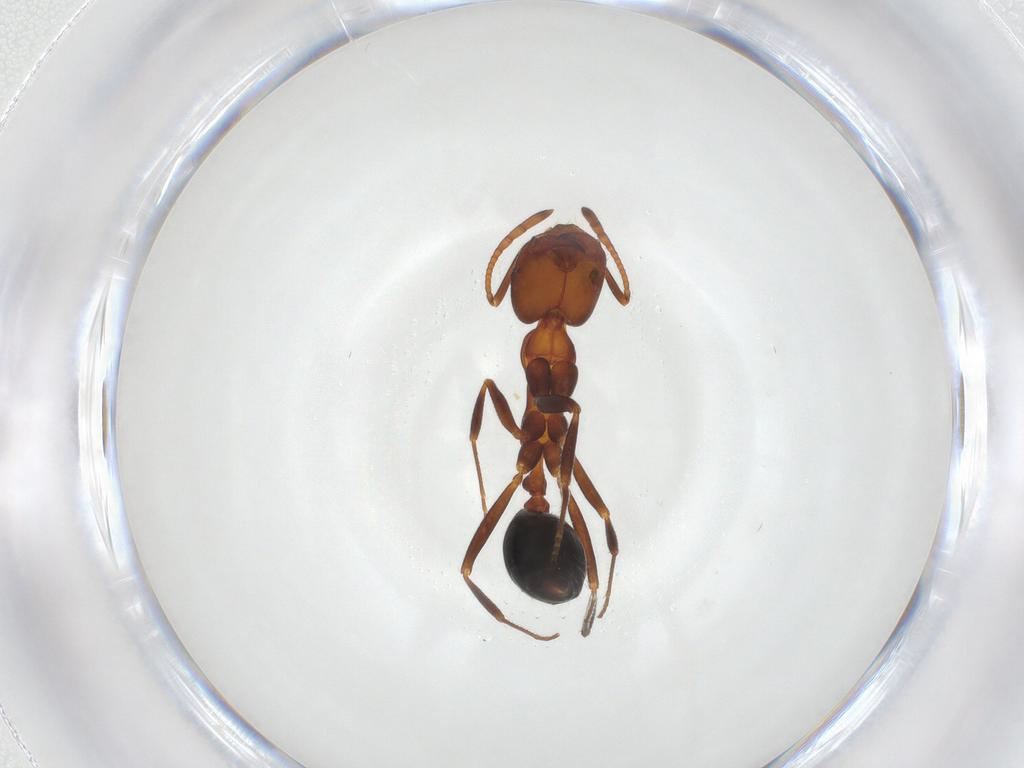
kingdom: Animalia
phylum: Arthropoda
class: Insecta
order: Hymenoptera
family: Formicidae
